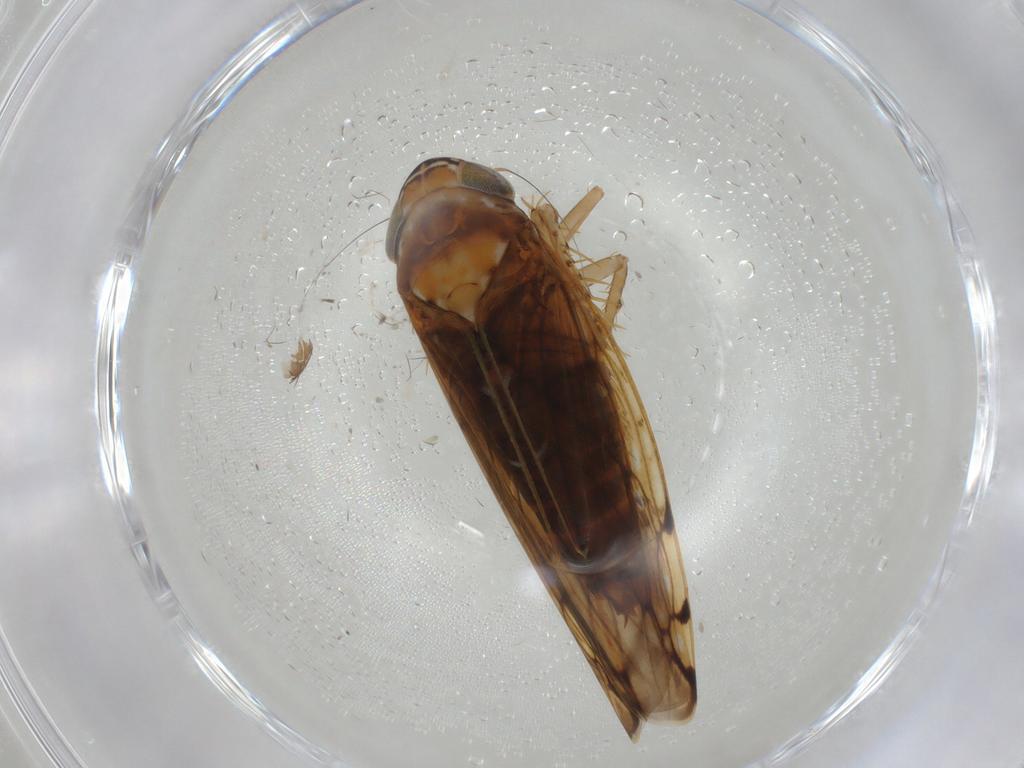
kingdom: Animalia
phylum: Arthropoda
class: Insecta
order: Hemiptera
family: Cicadellidae
